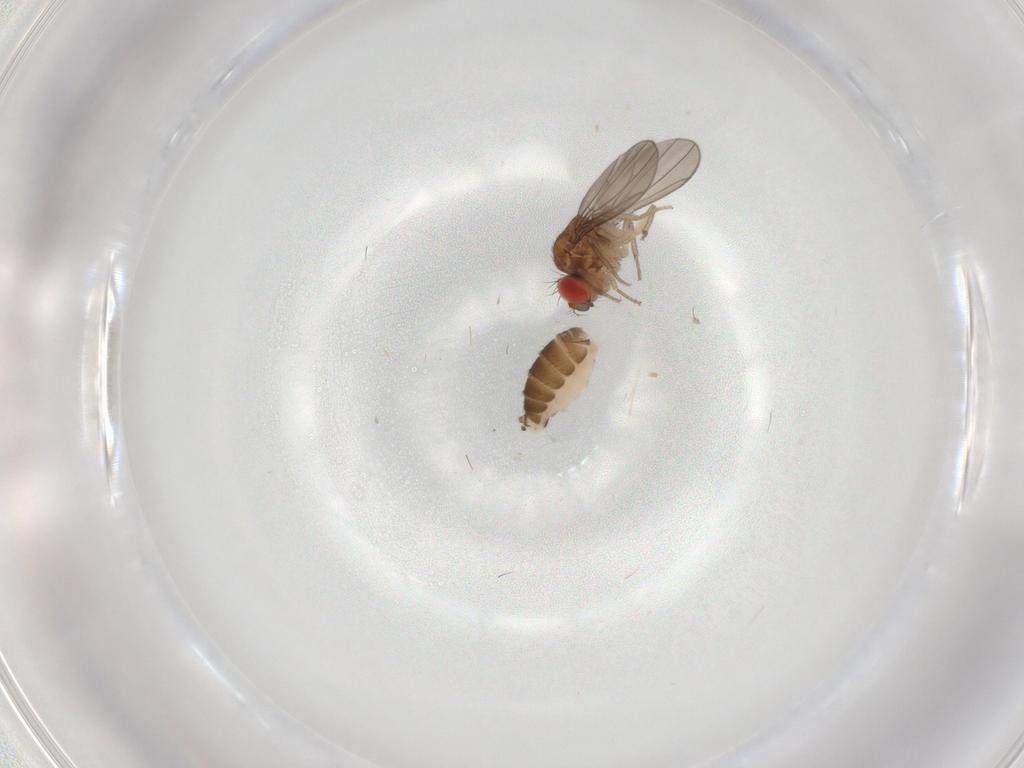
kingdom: Animalia
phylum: Arthropoda
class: Insecta
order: Diptera
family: Drosophilidae
